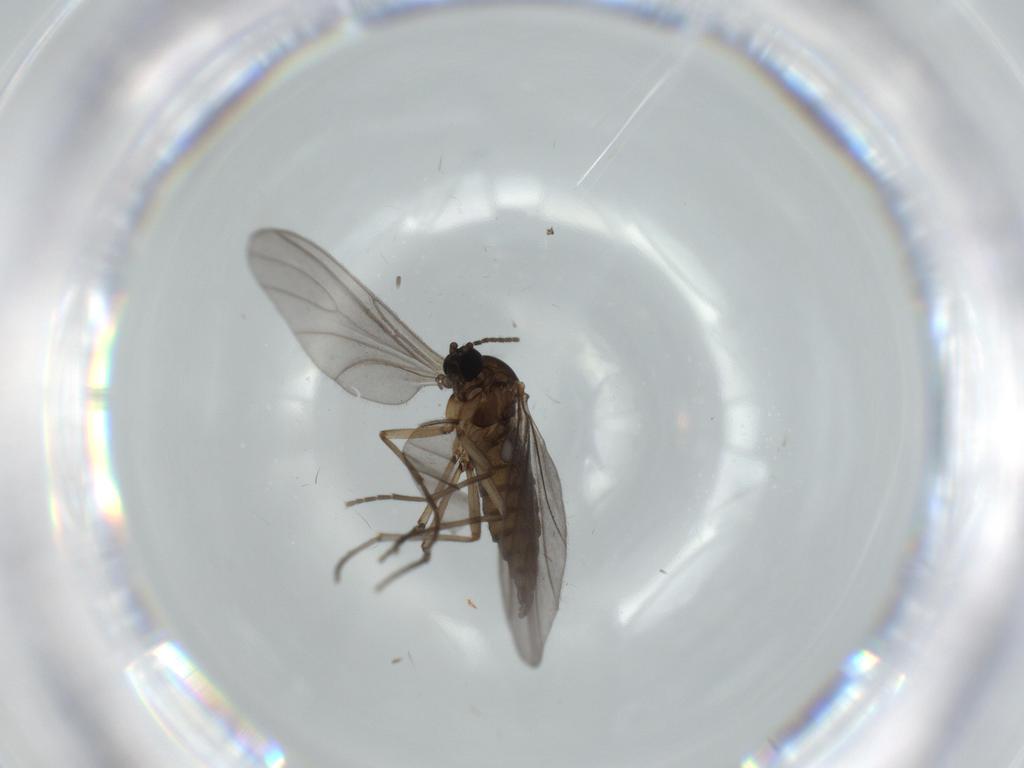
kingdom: Animalia
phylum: Arthropoda
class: Insecta
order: Diptera
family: Sciaridae
